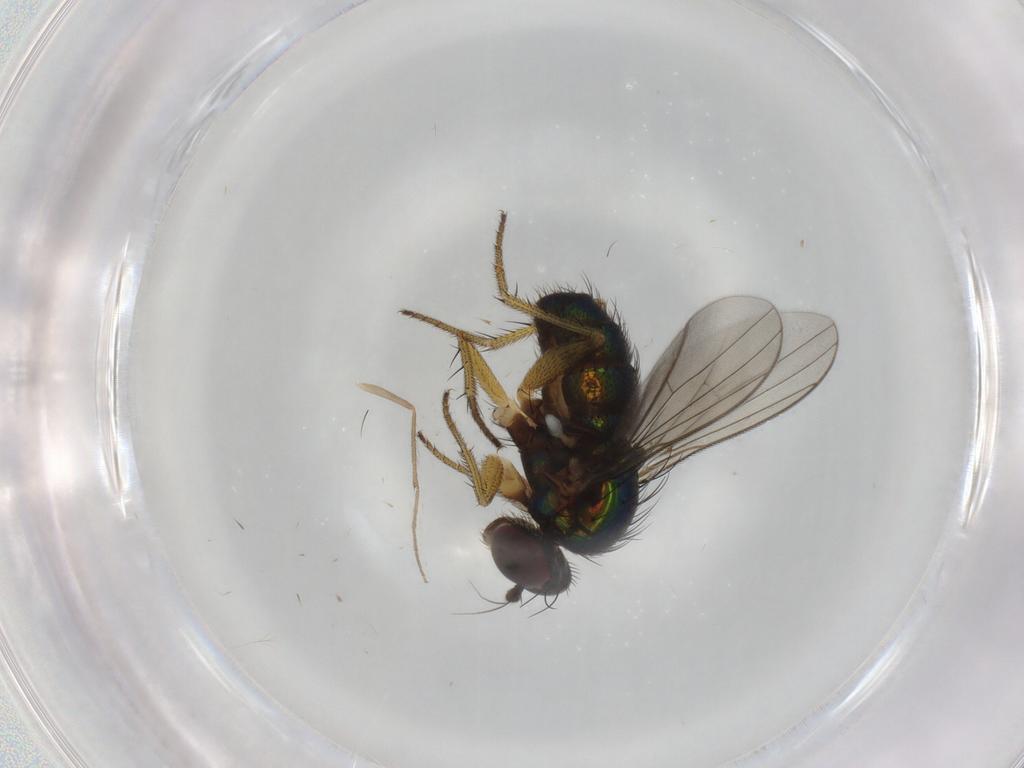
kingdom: Animalia
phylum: Arthropoda
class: Insecta
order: Diptera
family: Dolichopodidae
